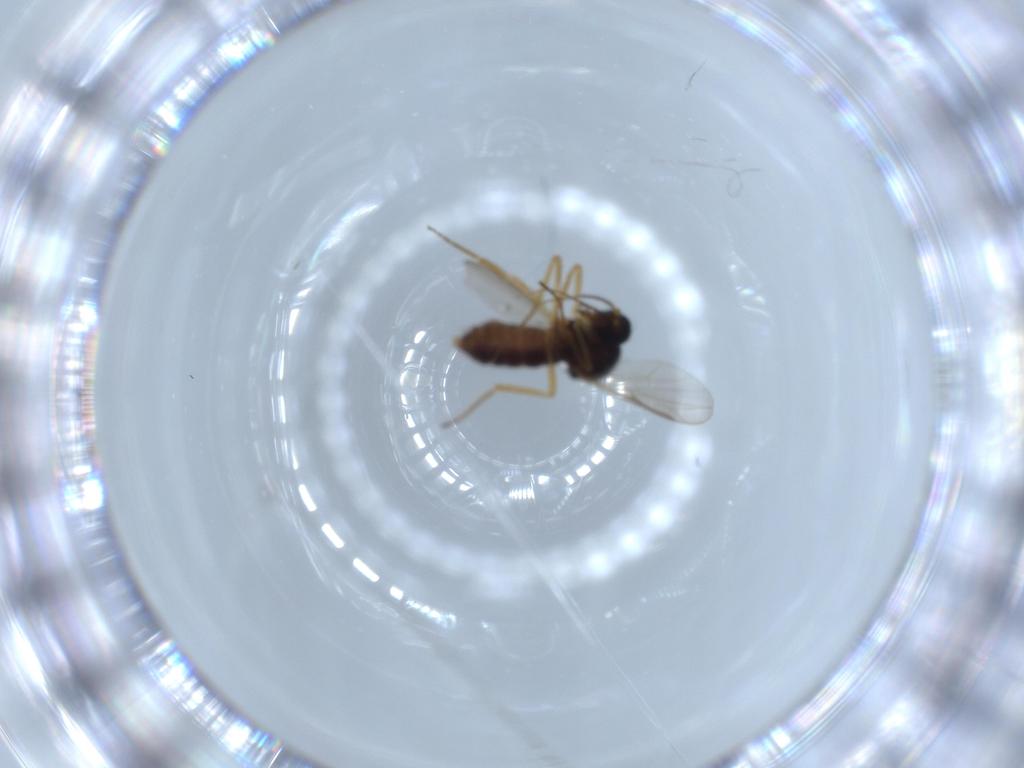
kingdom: Animalia
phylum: Arthropoda
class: Insecta
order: Diptera
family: Ceratopogonidae
